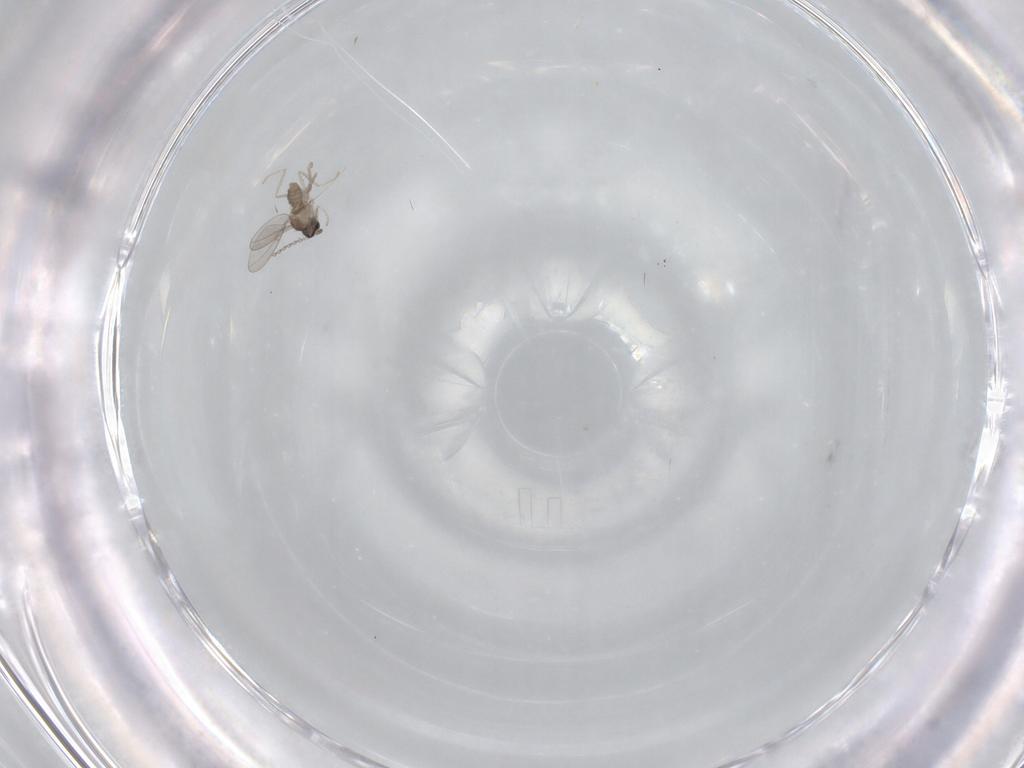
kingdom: Animalia
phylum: Arthropoda
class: Insecta
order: Diptera
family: Cecidomyiidae
